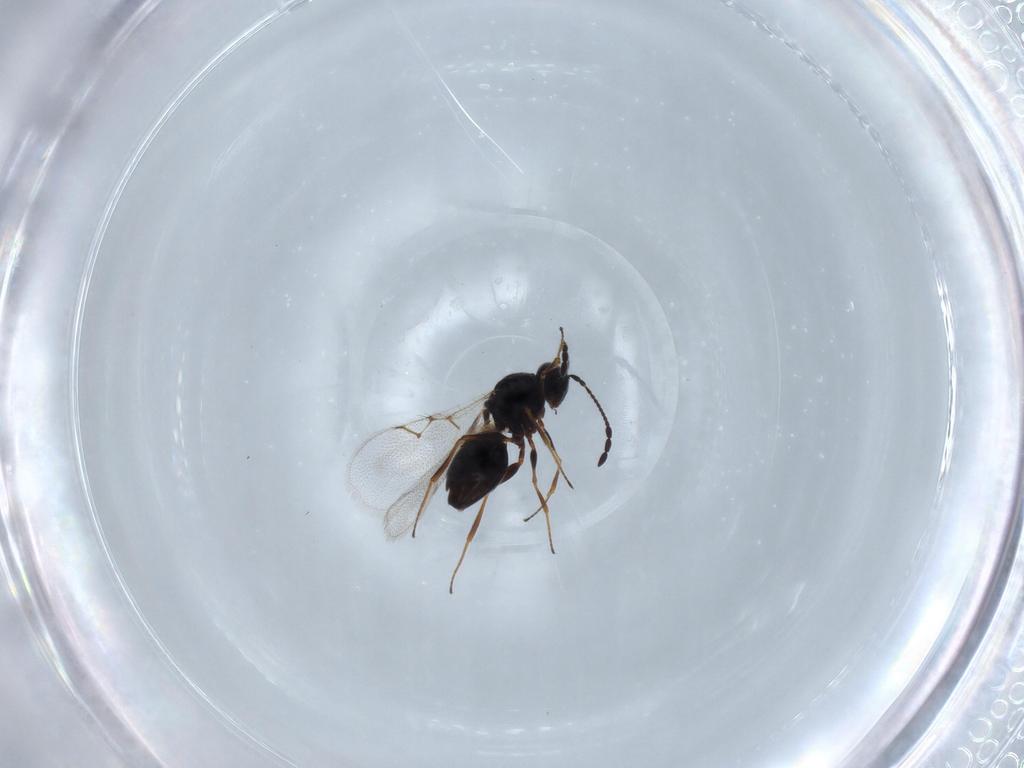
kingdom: Animalia
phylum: Arthropoda
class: Insecta
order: Hymenoptera
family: Figitidae
